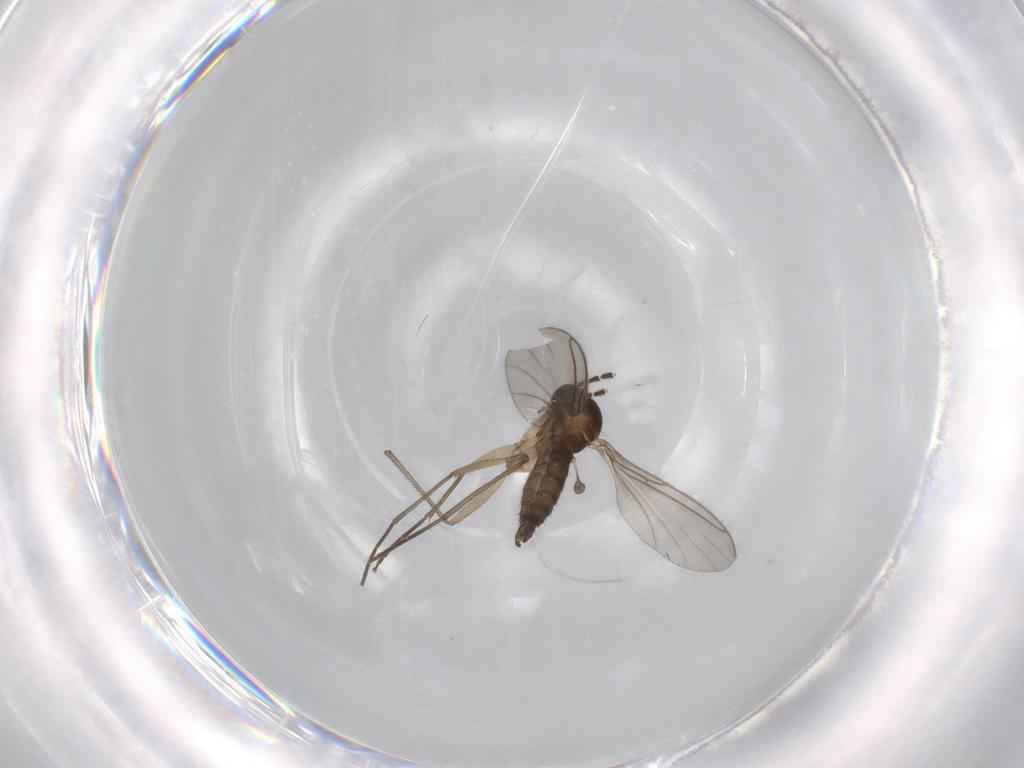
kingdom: Animalia
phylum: Arthropoda
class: Insecta
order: Diptera
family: Sciaridae
